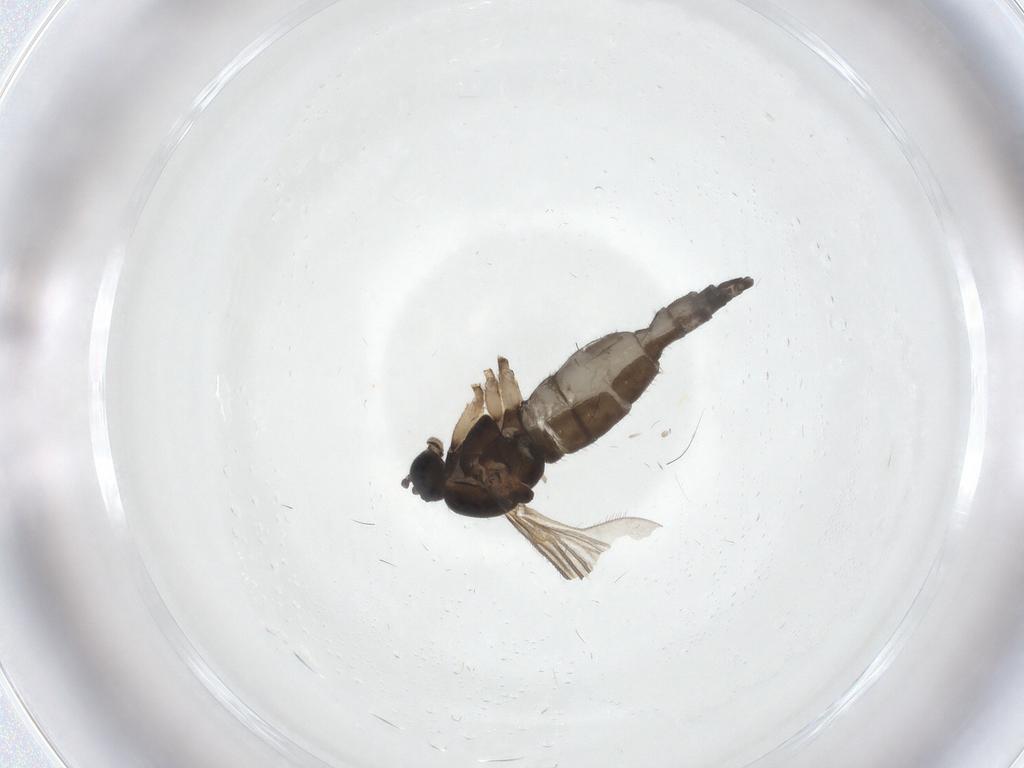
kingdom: Animalia
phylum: Arthropoda
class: Insecta
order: Diptera
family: Sciaridae
